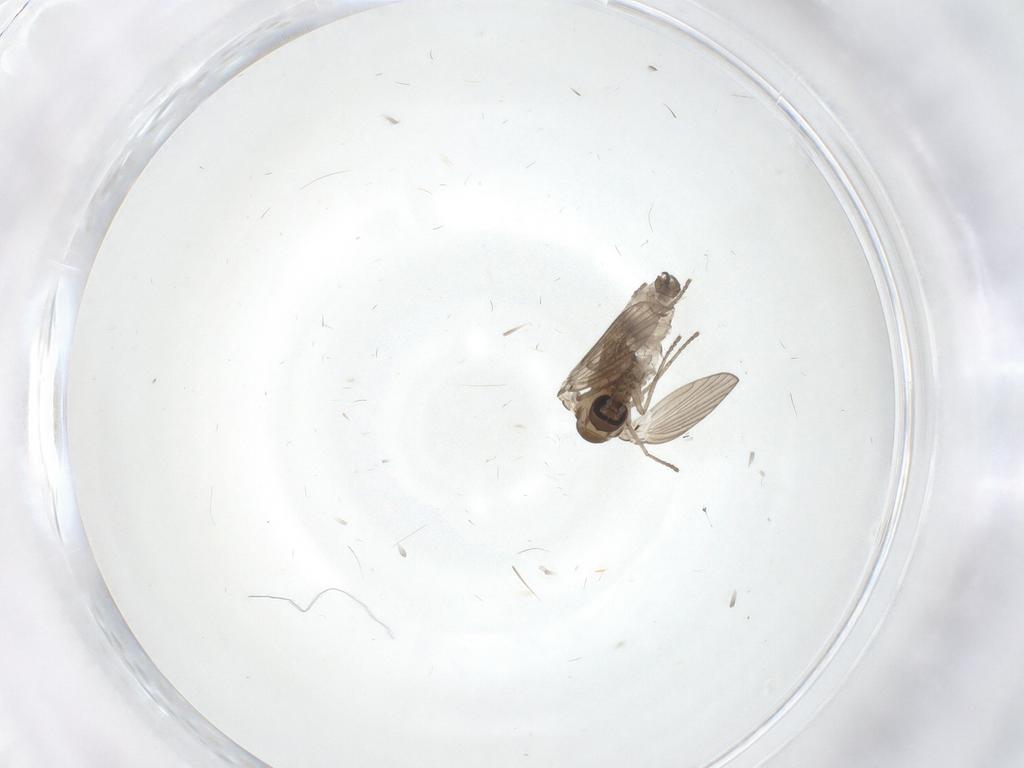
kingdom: Animalia
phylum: Arthropoda
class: Insecta
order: Diptera
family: Psychodidae
